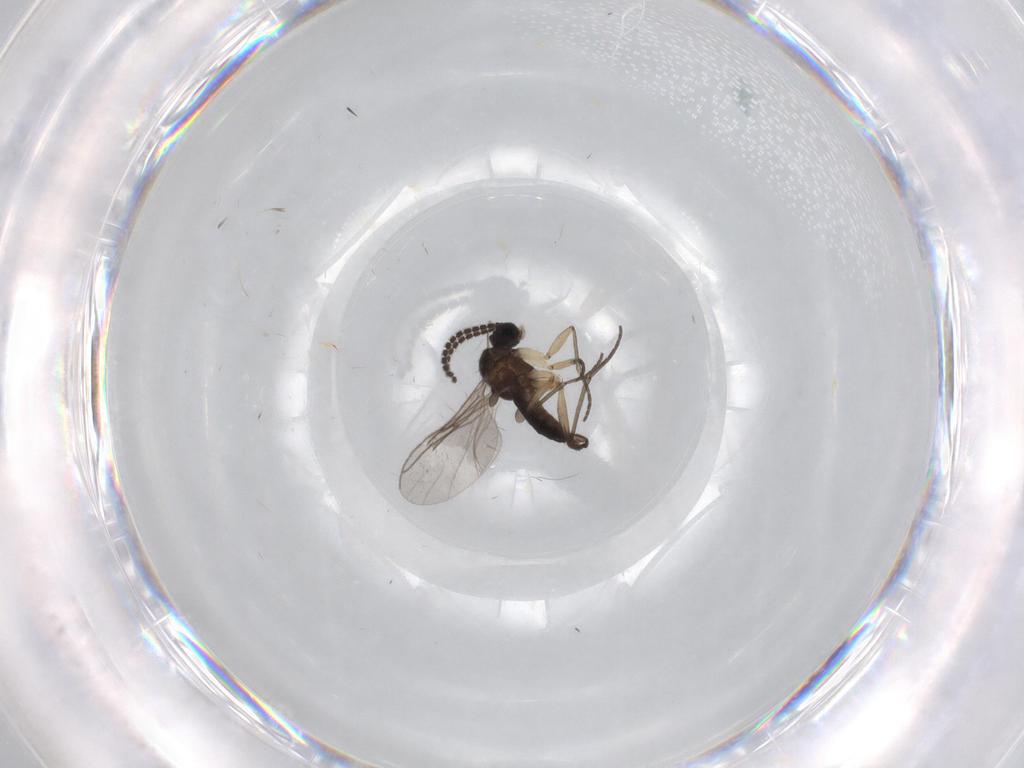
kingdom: Animalia
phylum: Arthropoda
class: Insecta
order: Diptera
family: Sciaridae
